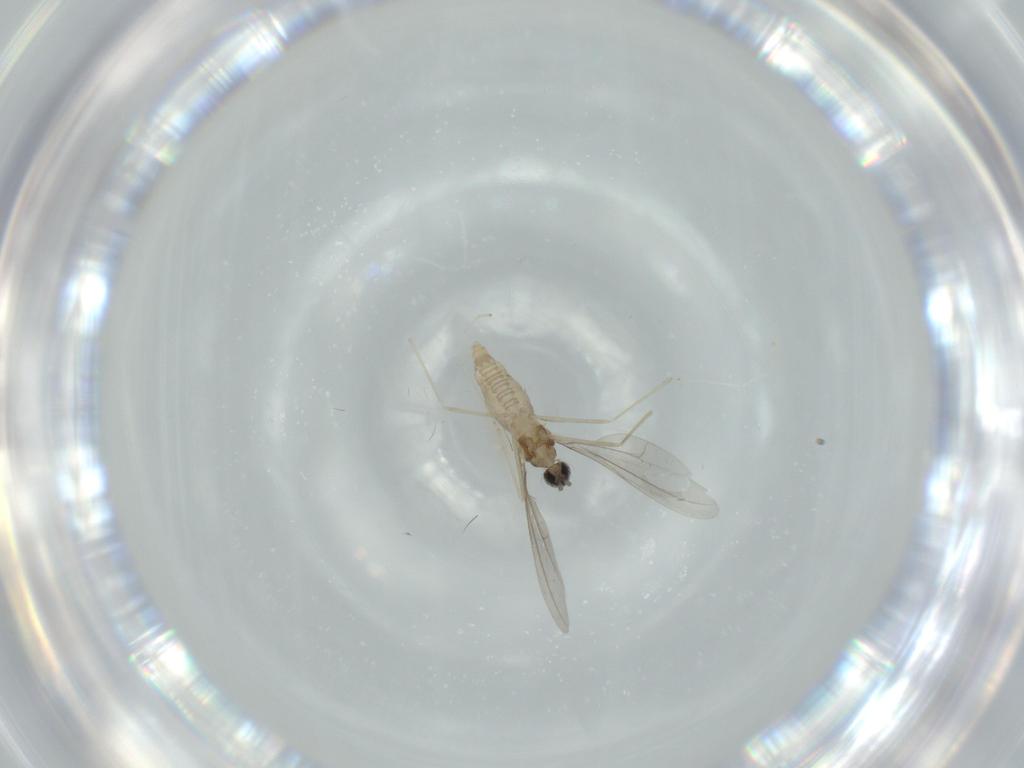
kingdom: Animalia
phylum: Arthropoda
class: Insecta
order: Diptera
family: Cecidomyiidae
